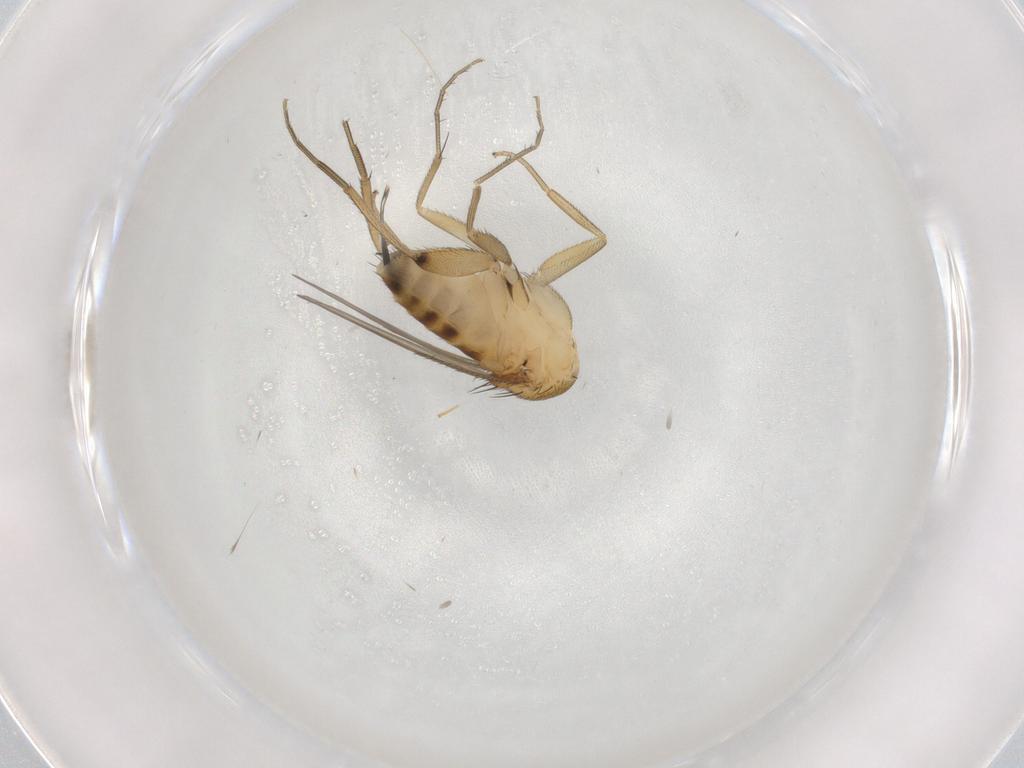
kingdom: Animalia
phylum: Arthropoda
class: Insecta
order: Diptera
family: Phoridae
